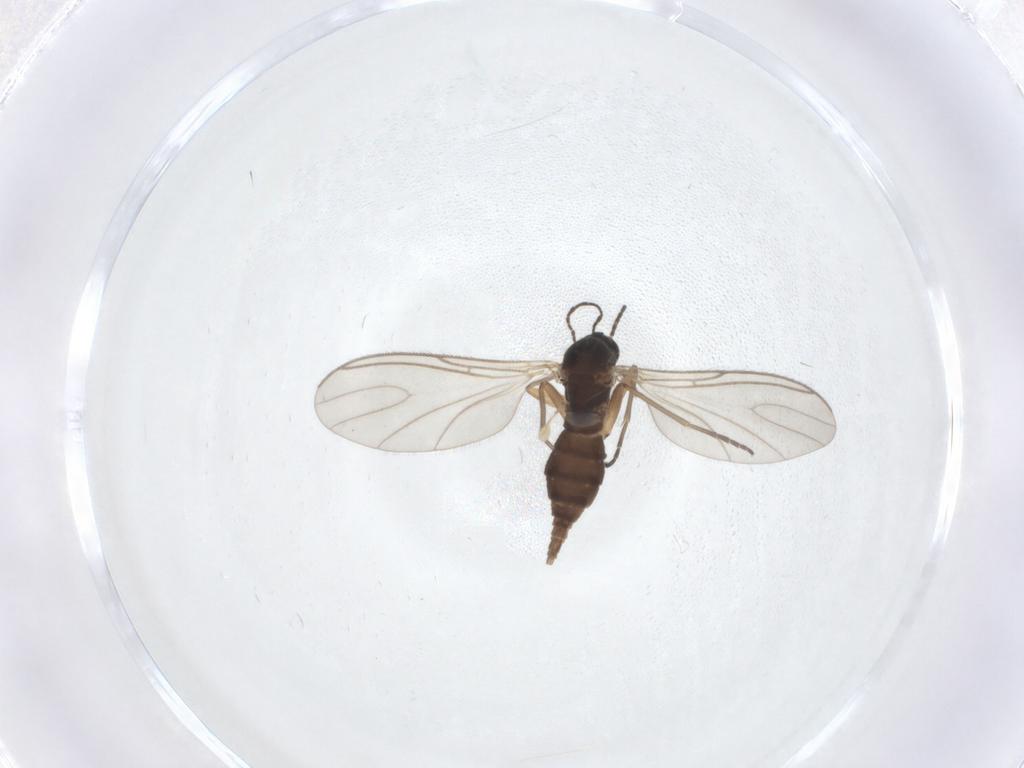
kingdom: Animalia
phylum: Arthropoda
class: Insecta
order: Diptera
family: Sciaridae
